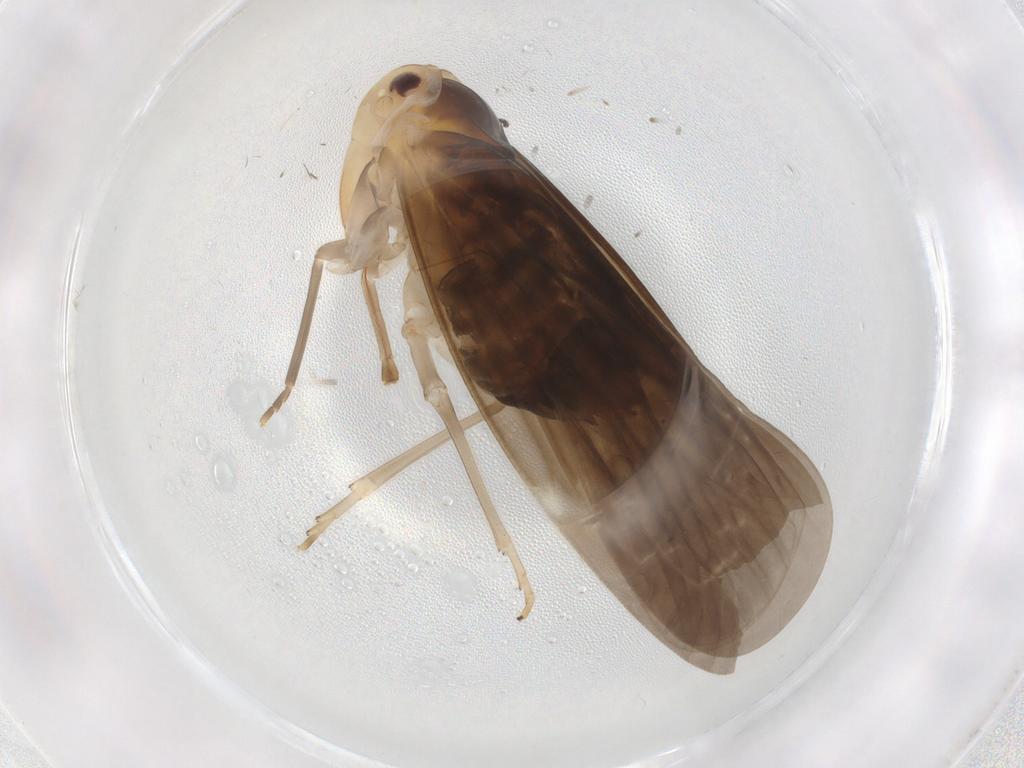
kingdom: Animalia
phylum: Arthropoda
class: Insecta
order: Hemiptera
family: Derbidae
